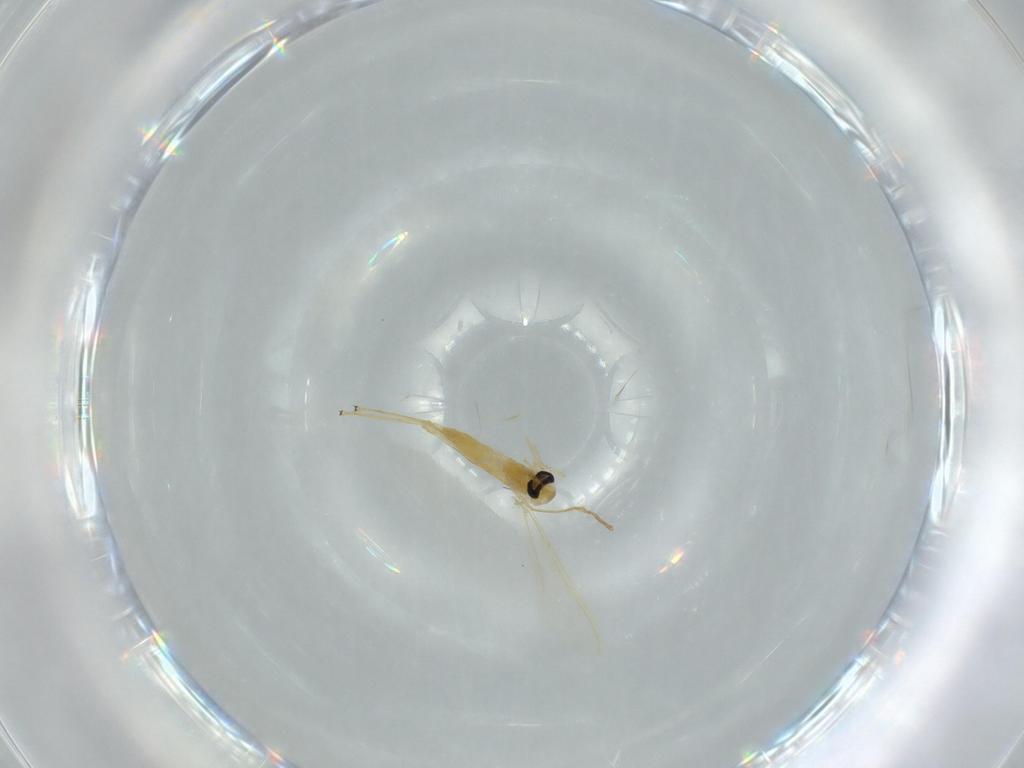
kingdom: Animalia
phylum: Arthropoda
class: Insecta
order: Diptera
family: Chironomidae
